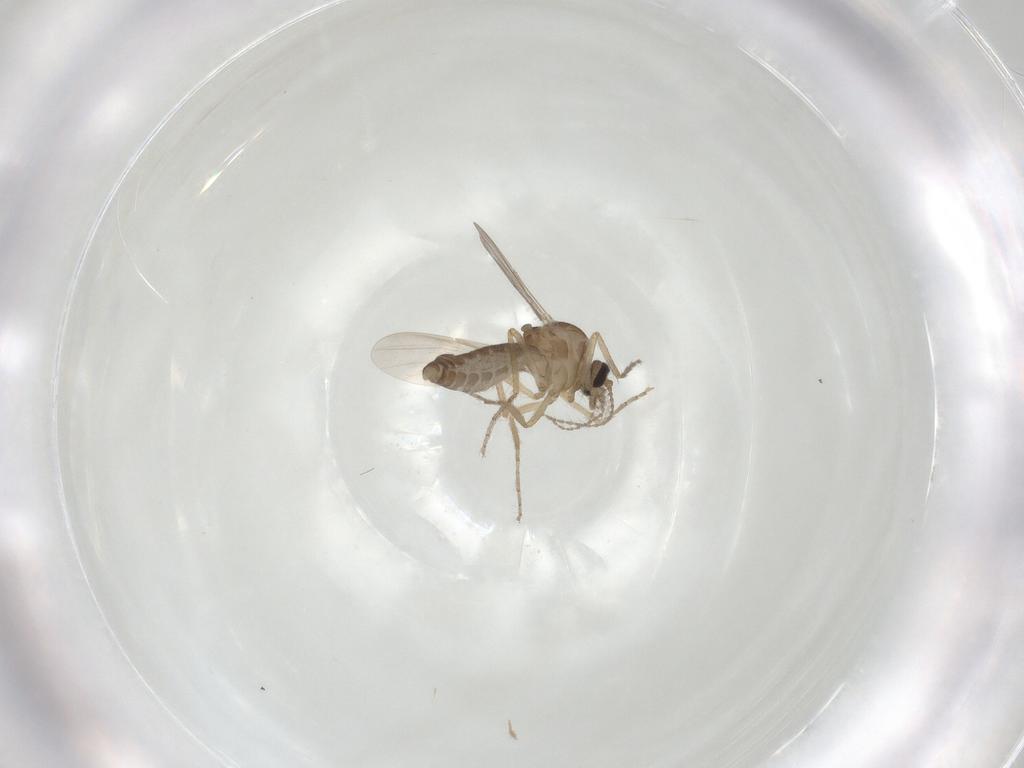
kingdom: Animalia
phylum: Arthropoda
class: Insecta
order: Diptera
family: Ceratopogonidae
